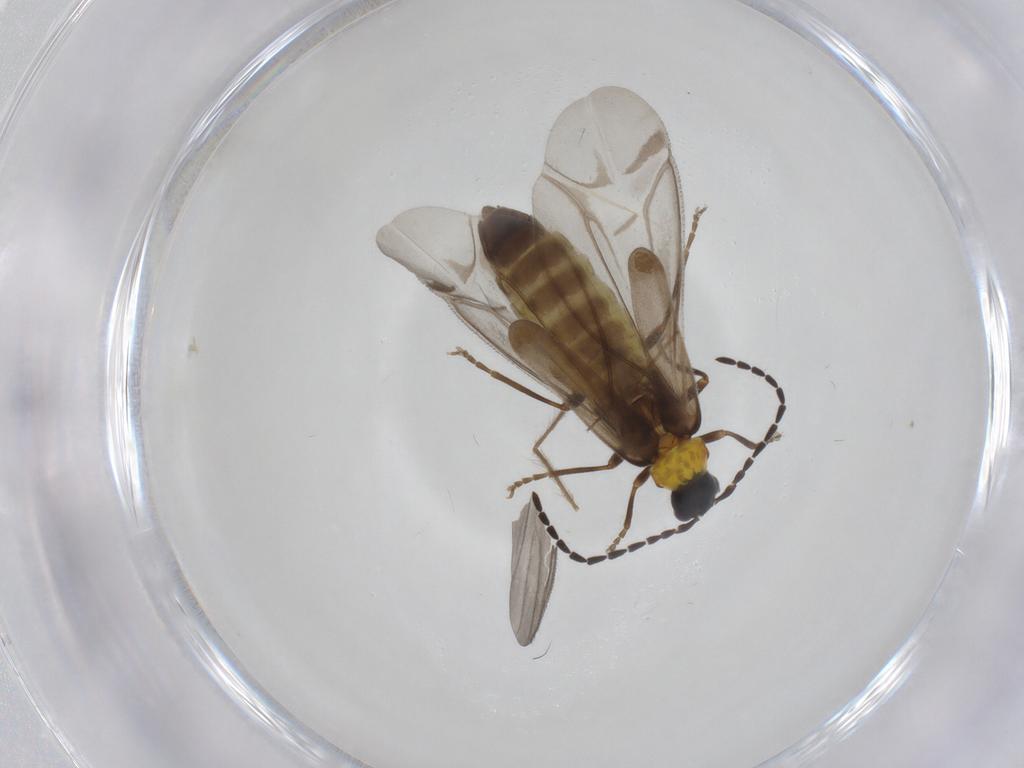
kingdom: Animalia
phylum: Arthropoda
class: Insecta
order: Coleoptera
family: Cantharidae
